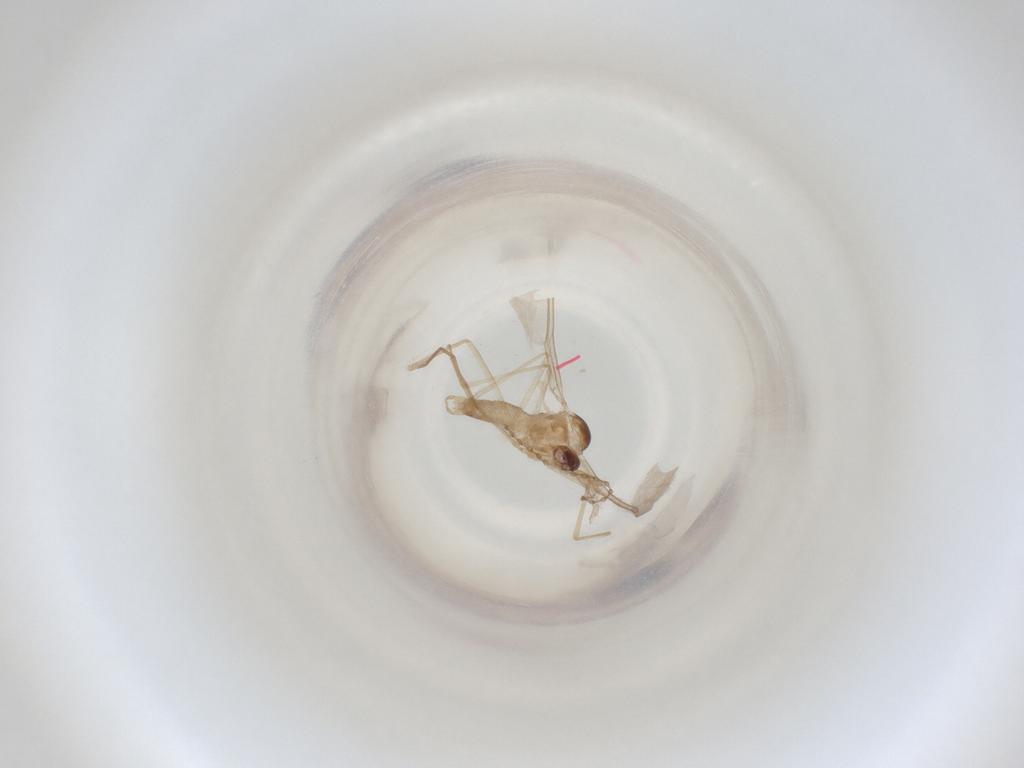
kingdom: Animalia
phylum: Arthropoda
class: Insecta
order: Diptera
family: Cecidomyiidae
